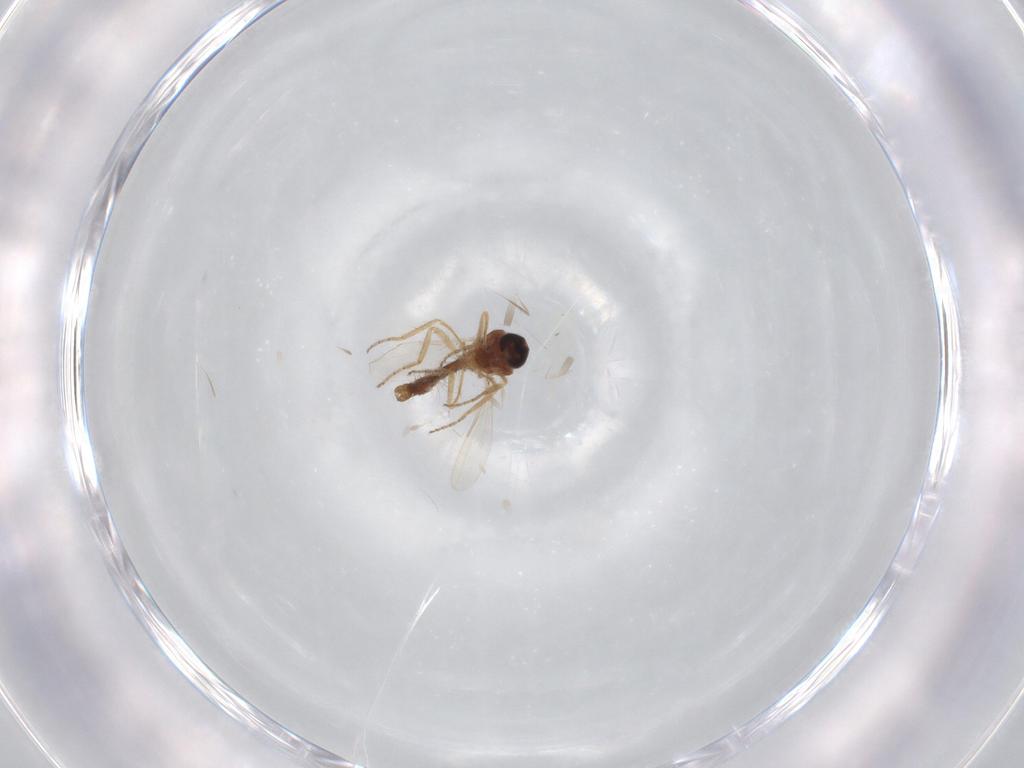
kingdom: Animalia
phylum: Arthropoda
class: Insecta
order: Diptera
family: Ceratopogonidae
